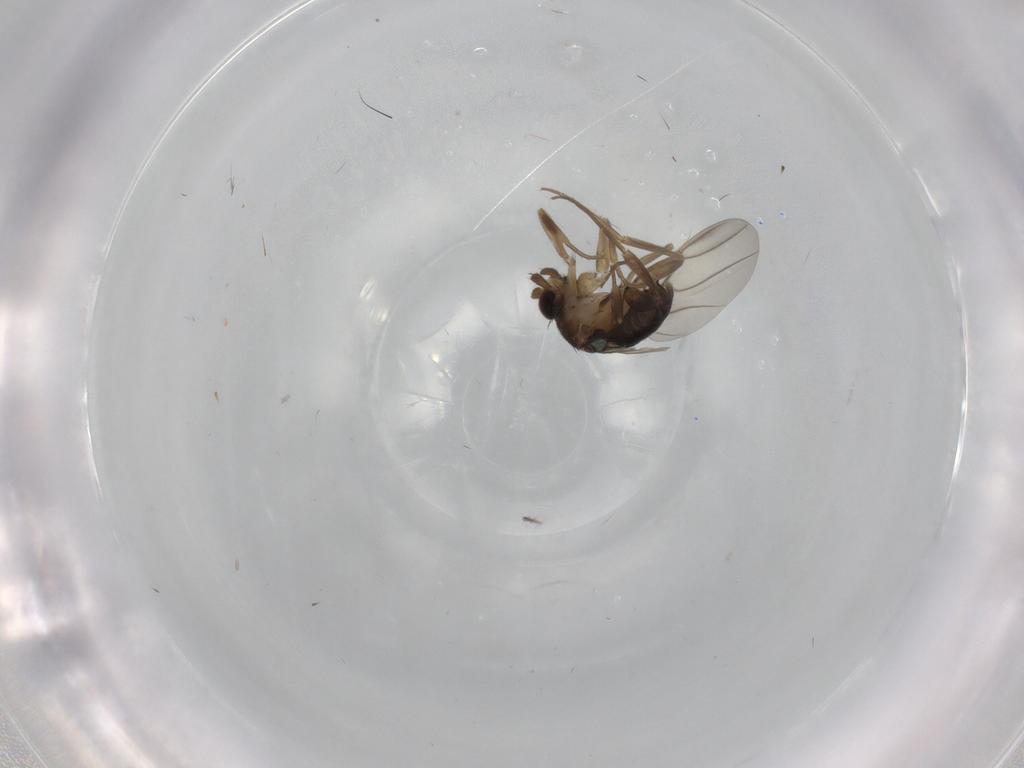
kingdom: Animalia
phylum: Arthropoda
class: Insecta
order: Diptera
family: Phoridae
